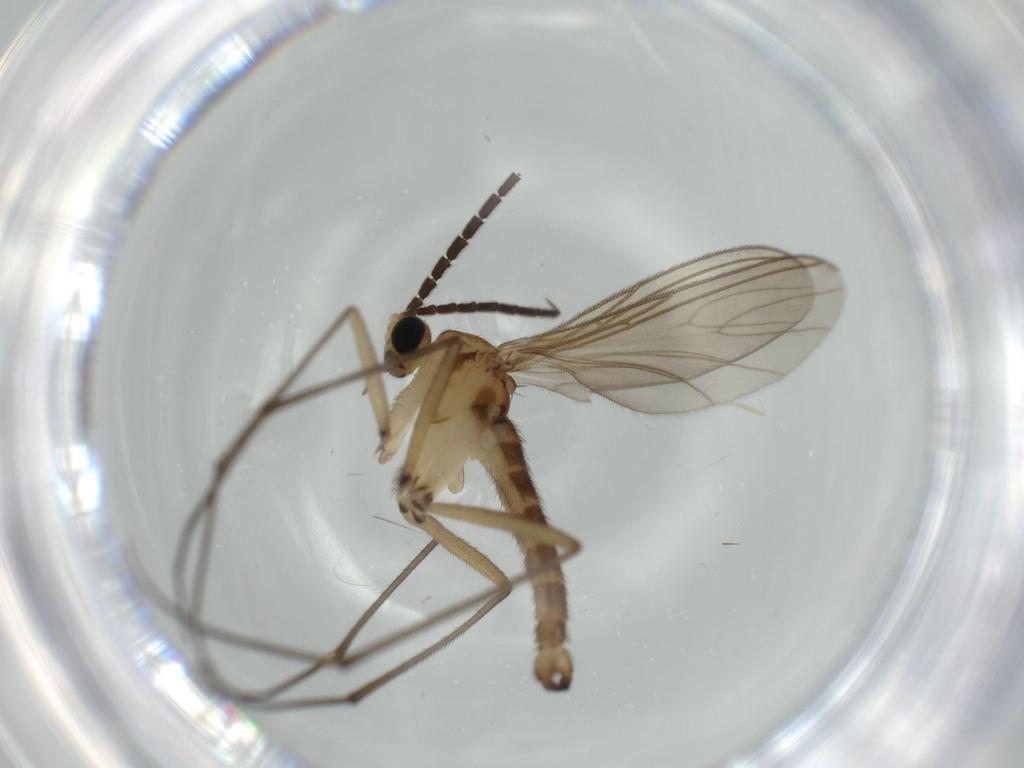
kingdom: Animalia
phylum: Arthropoda
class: Insecta
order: Diptera
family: Sciaridae
